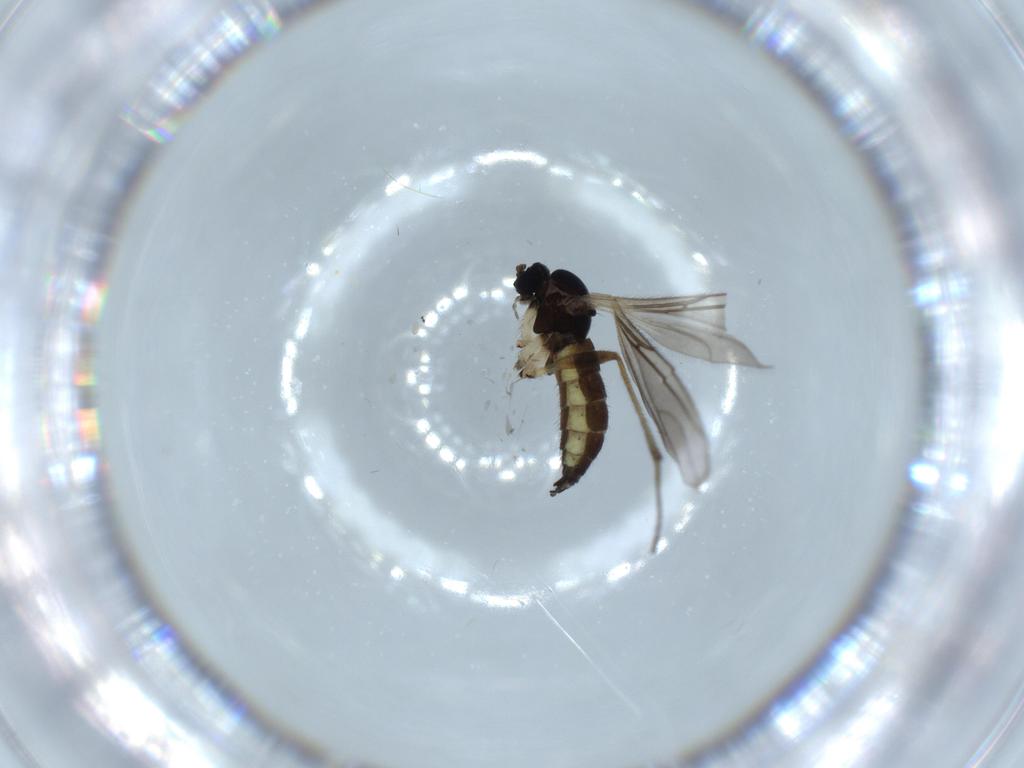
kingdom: Animalia
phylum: Arthropoda
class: Insecta
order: Diptera
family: Sciaridae
